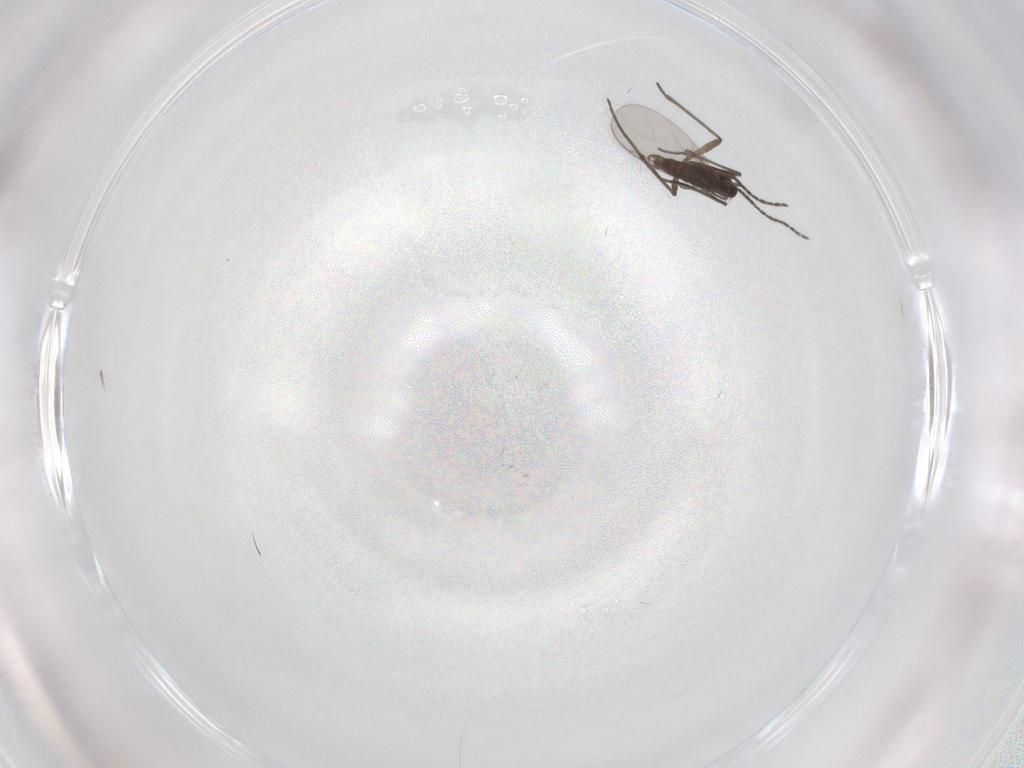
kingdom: Animalia
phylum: Arthropoda
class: Insecta
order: Diptera
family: Sciaridae
